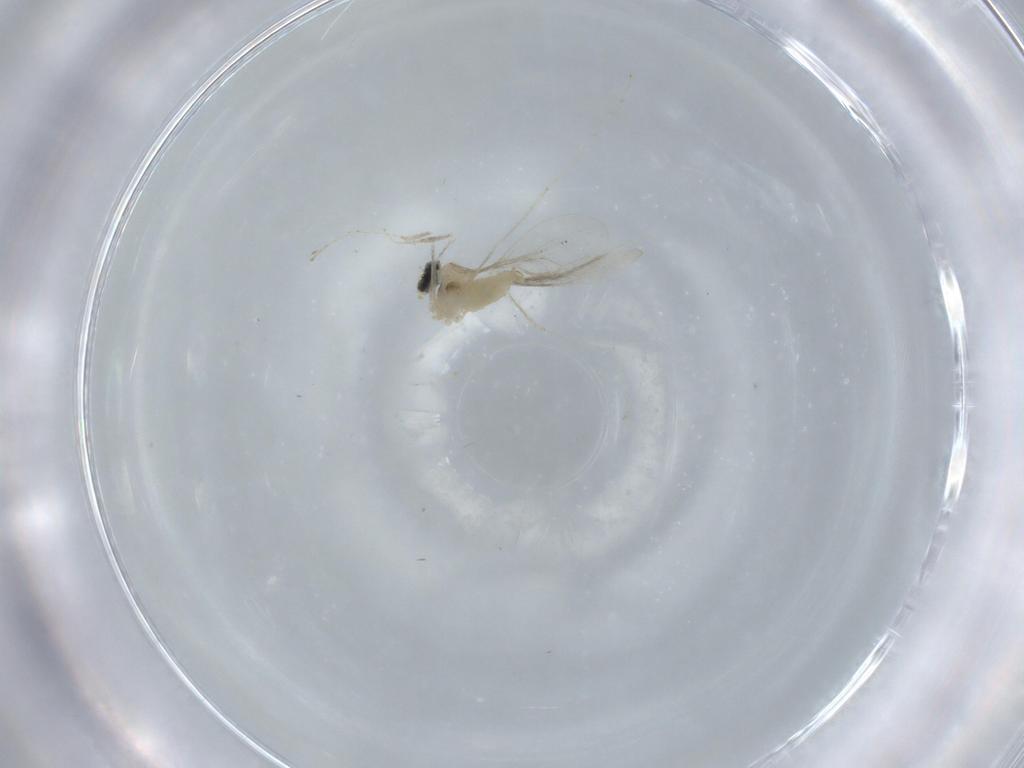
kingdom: Animalia
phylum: Arthropoda
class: Insecta
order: Diptera
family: Cecidomyiidae
